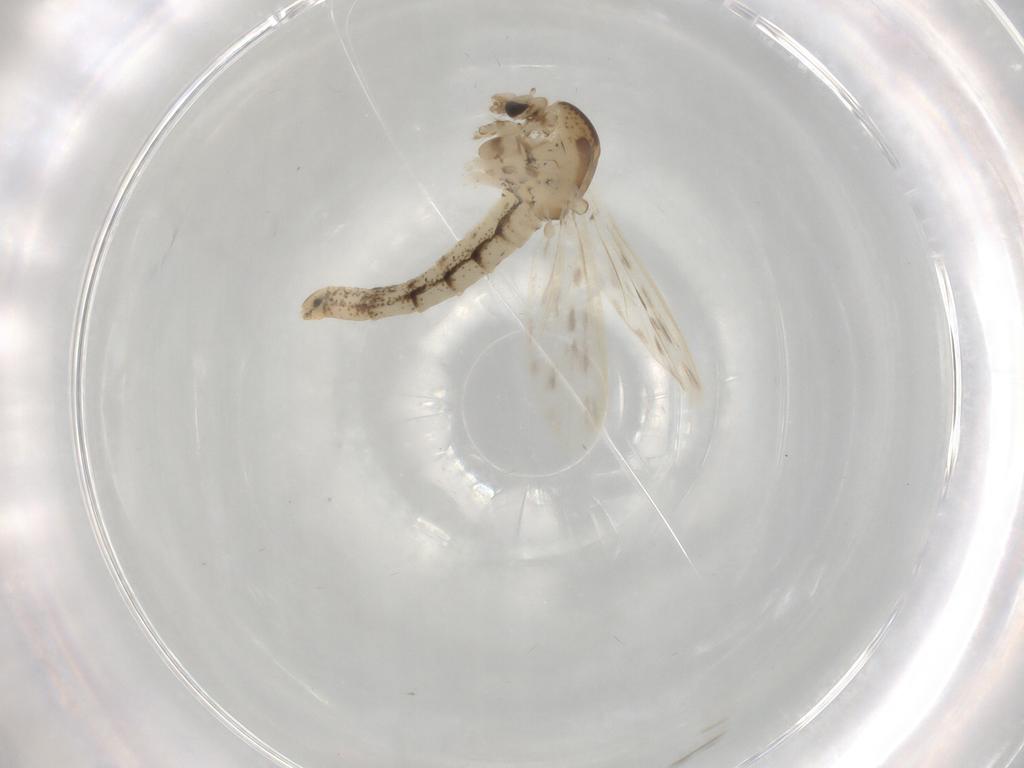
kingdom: Animalia
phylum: Arthropoda
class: Insecta
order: Diptera
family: Chaoboridae
